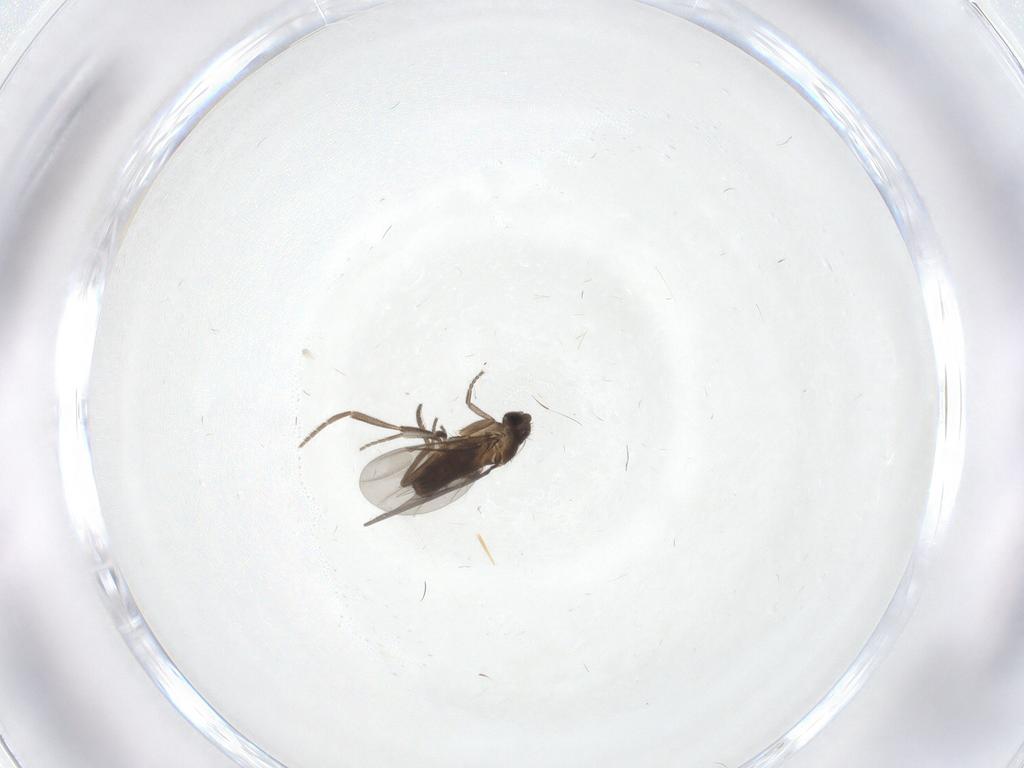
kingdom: Animalia
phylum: Arthropoda
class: Insecta
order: Diptera
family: Phoridae
